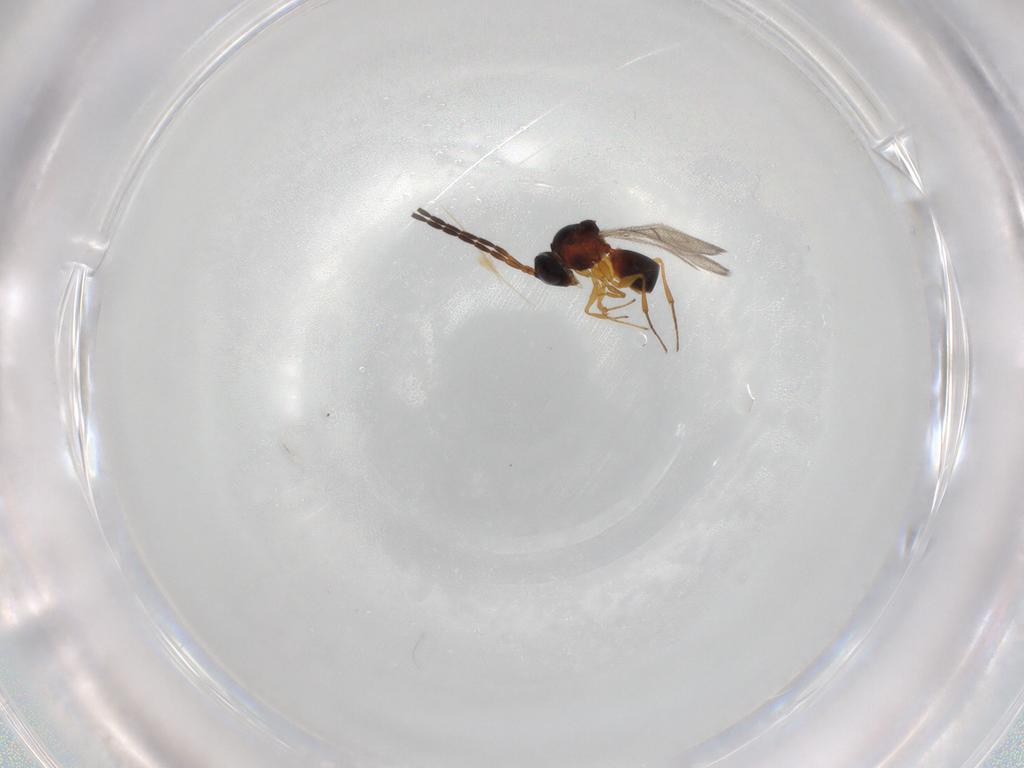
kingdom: Animalia
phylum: Arthropoda
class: Insecta
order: Hymenoptera
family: Figitidae
